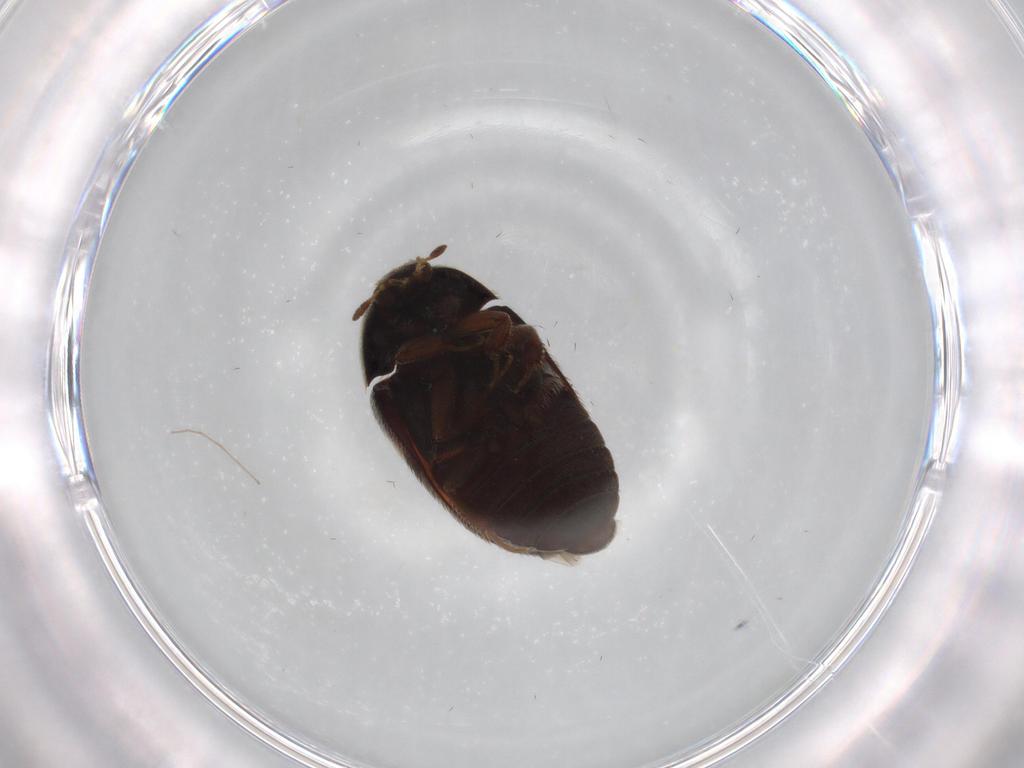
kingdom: Animalia
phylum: Arthropoda
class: Insecta
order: Coleoptera
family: Dermestidae
